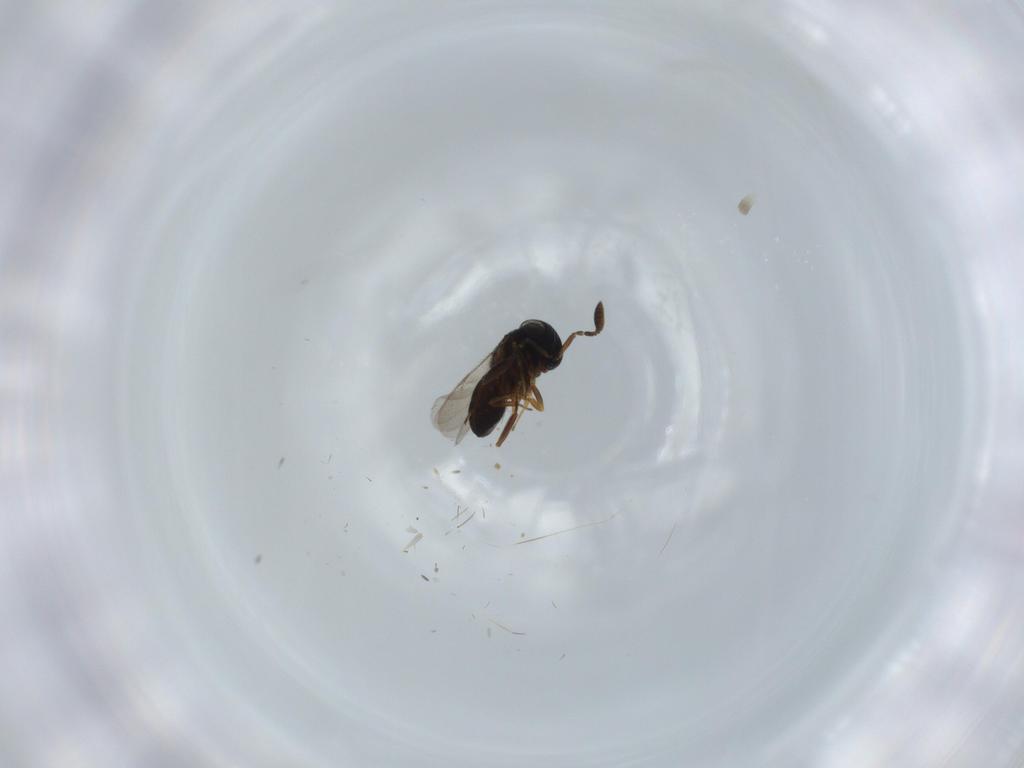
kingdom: Animalia
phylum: Arthropoda
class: Insecta
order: Coleoptera
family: Curculionidae
